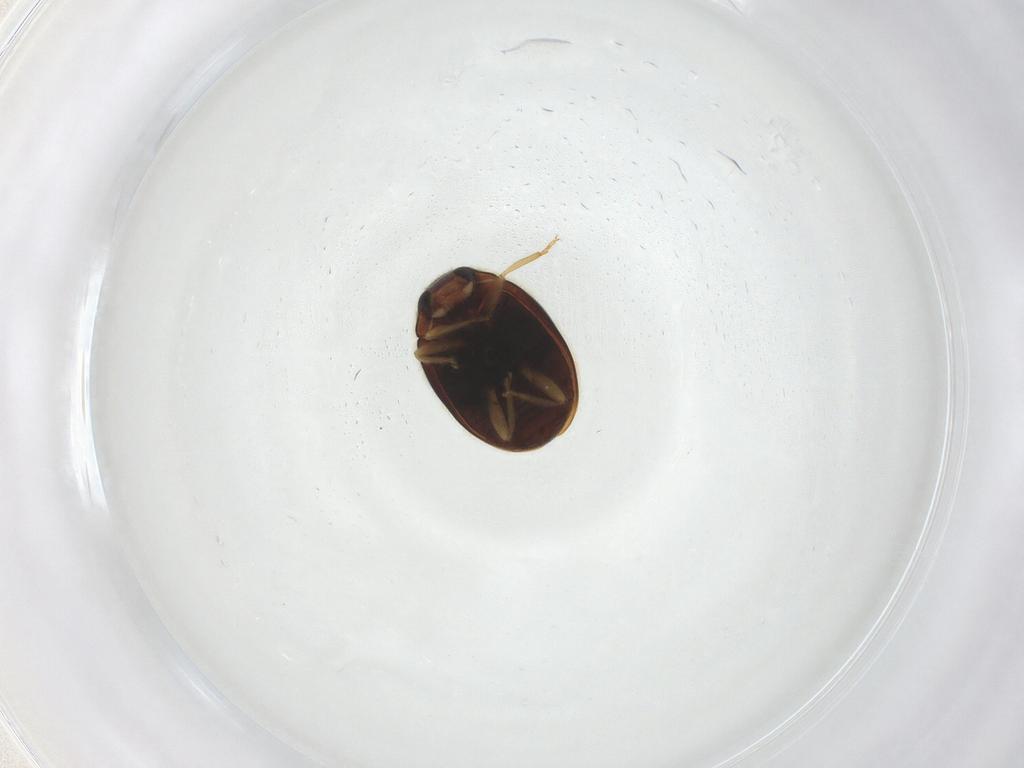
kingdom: Animalia
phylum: Arthropoda
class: Insecta
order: Coleoptera
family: Coccinellidae
